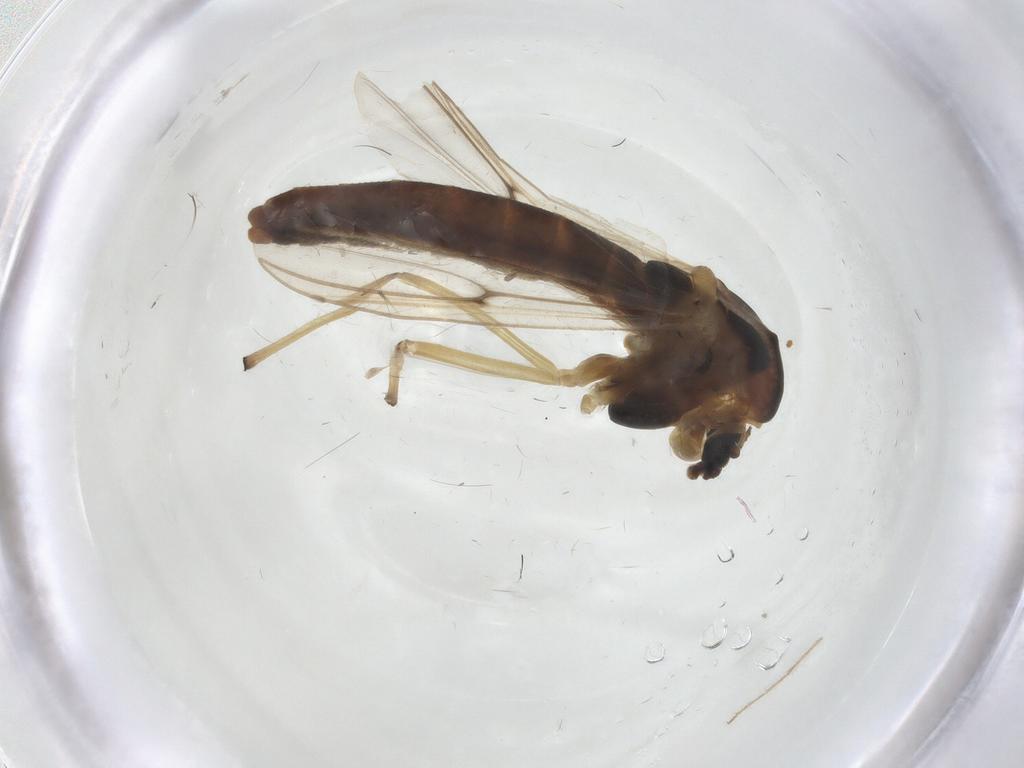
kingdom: Animalia
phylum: Arthropoda
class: Insecta
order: Diptera
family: Chironomidae
